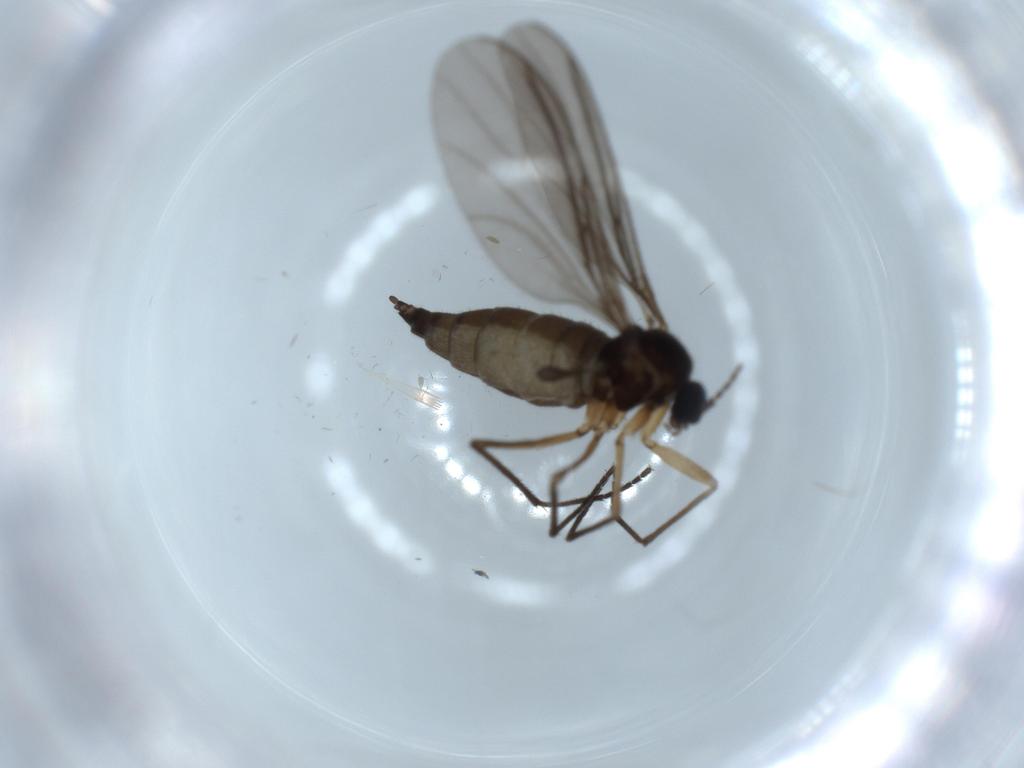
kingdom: Animalia
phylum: Arthropoda
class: Insecta
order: Diptera
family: Sciaridae
